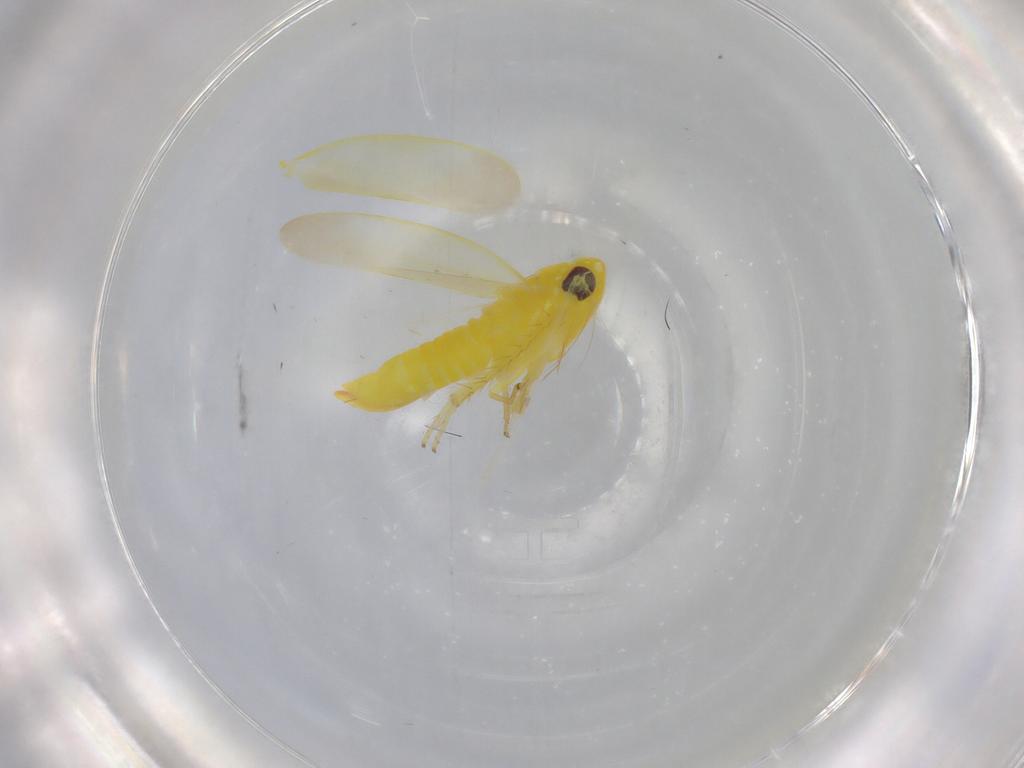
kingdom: Animalia
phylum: Arthropoda
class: Insecta
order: Hemiptera
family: Cicadellidae
